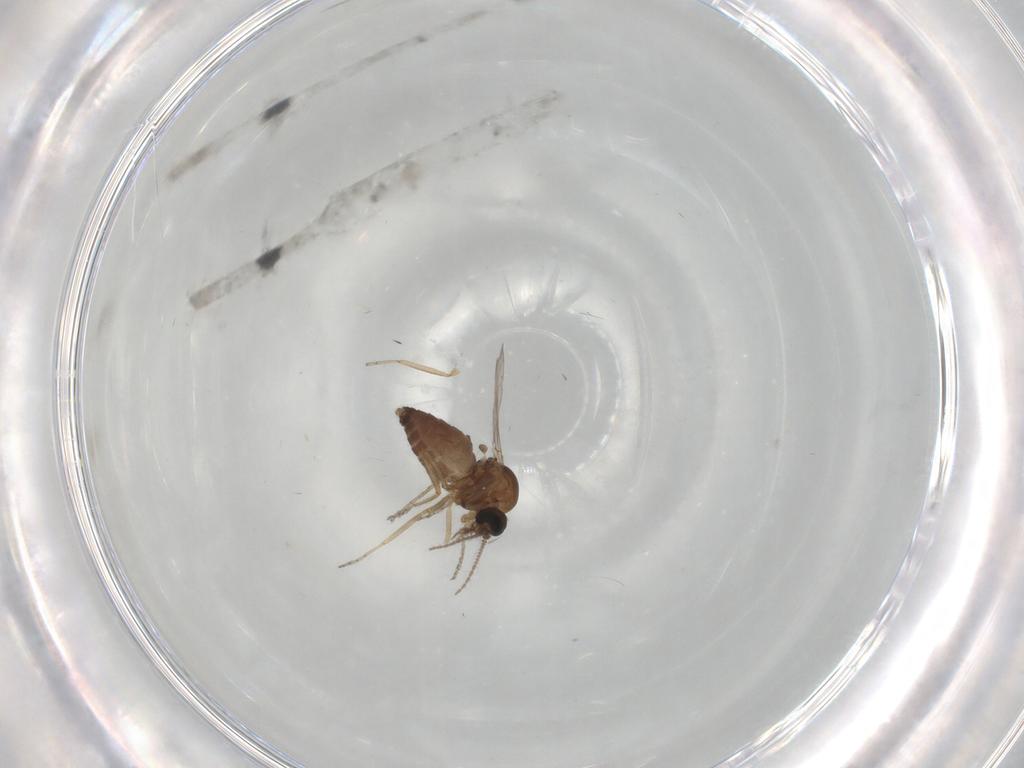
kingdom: Animalia
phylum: Arthropoda
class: Insecta
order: Diptera
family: Ceratopogonidae
